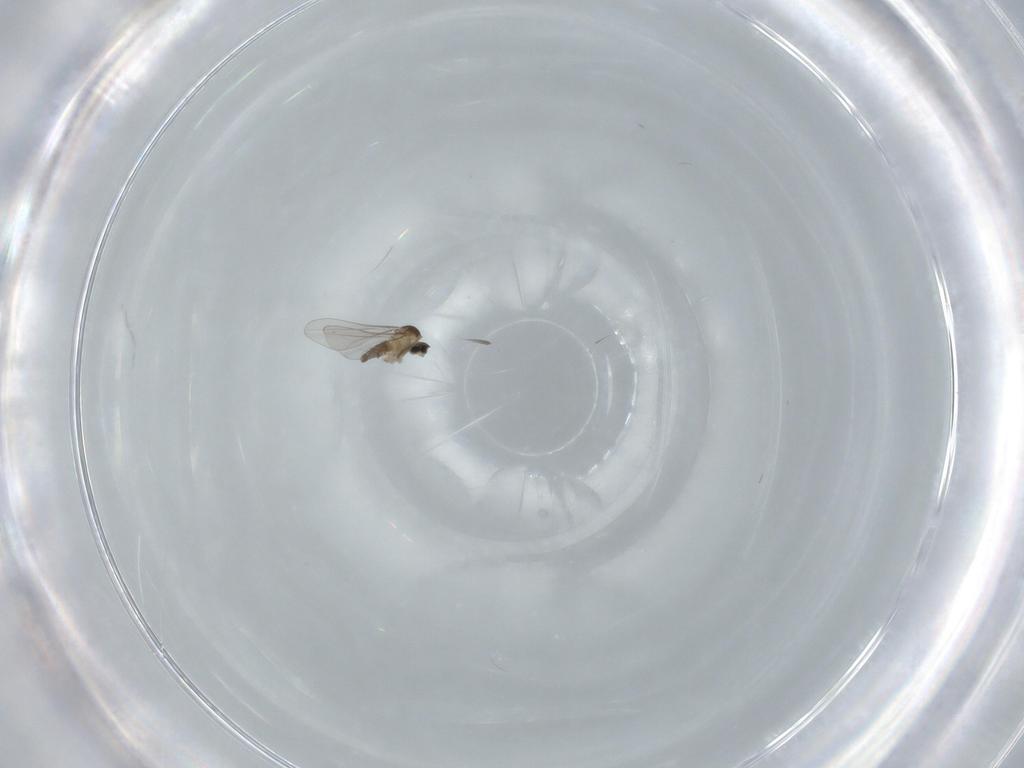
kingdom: Animalia
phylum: Arthropoda
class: Insecta
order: Diptera
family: Cecidomyiidae
